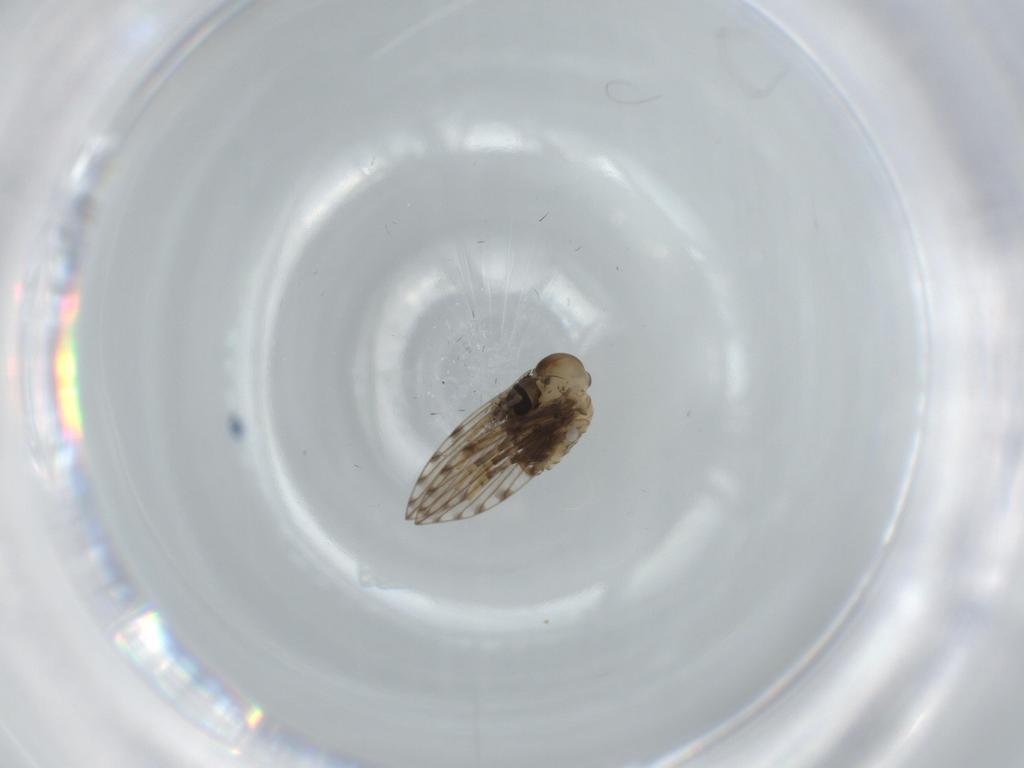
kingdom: Animalia
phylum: Arthropoda
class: Insecta
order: Diptera
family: Psychodidae
